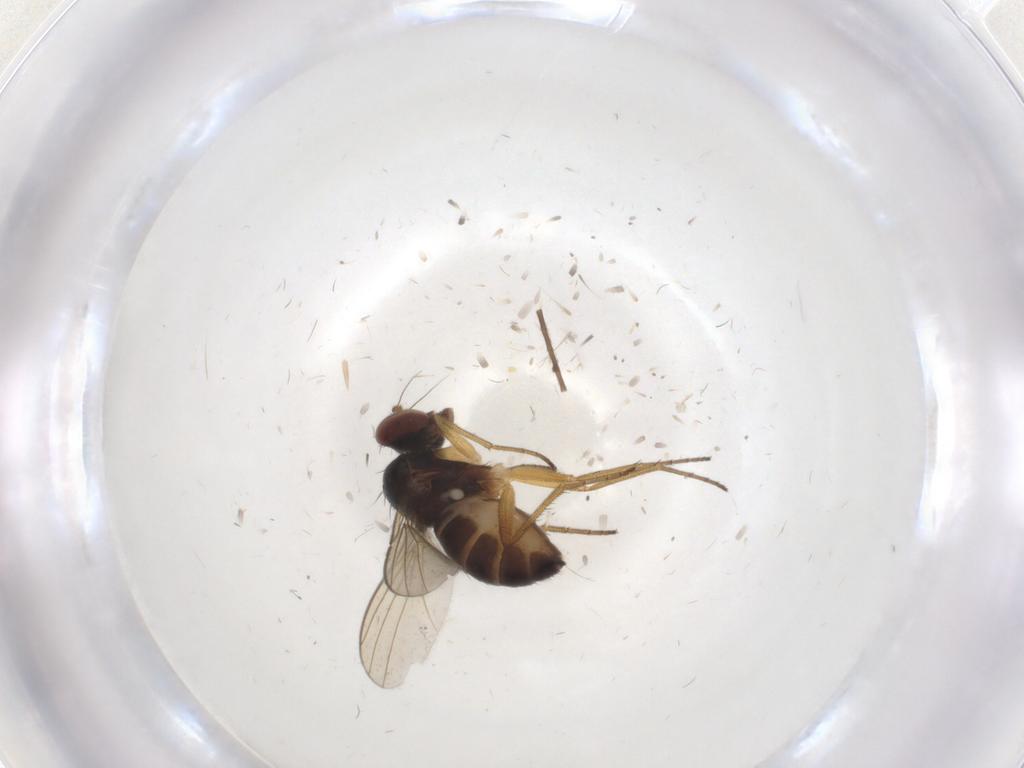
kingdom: Animalia
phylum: Arthropoda
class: Insecta
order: Diptera
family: Dolichopodidae
